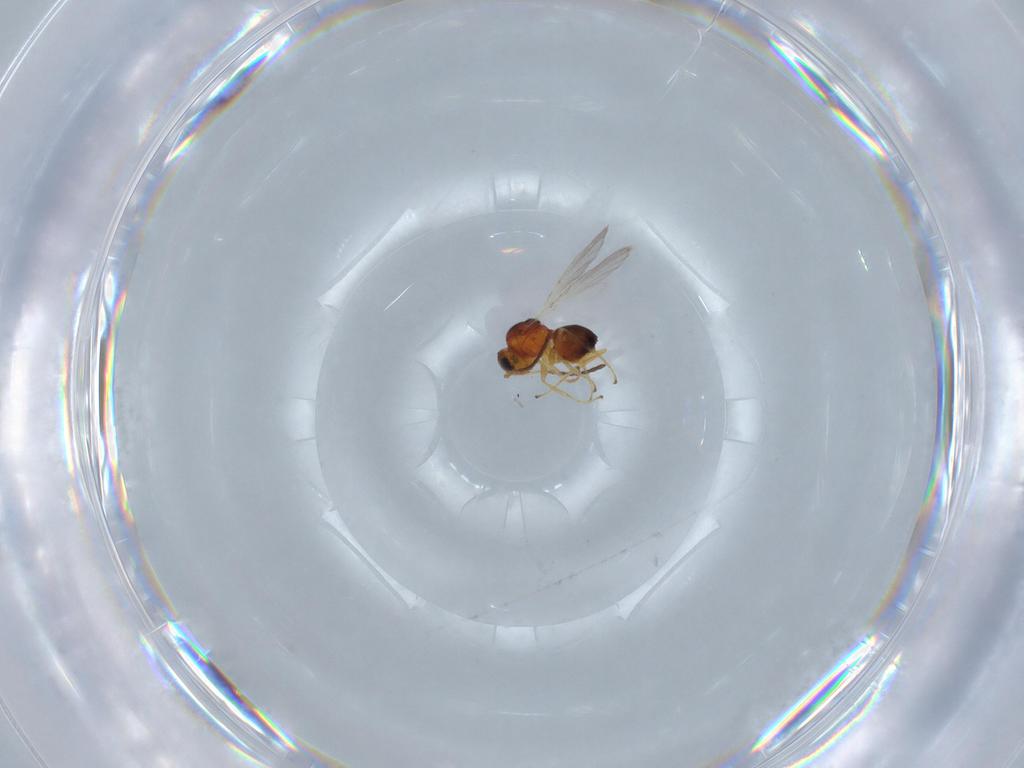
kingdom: Animalia
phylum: Arthropoda
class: Insecta
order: Hymenoptera
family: Figitidae
